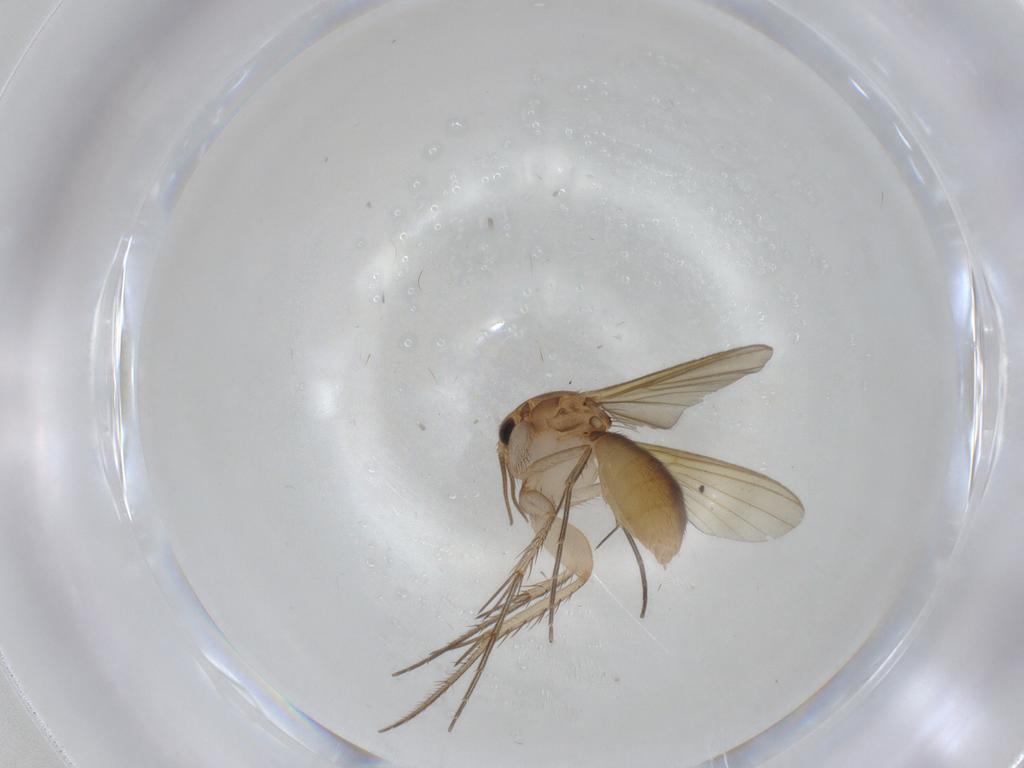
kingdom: Animalia
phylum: Arthropoda
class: Insecta
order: Diptera
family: Mycetophilidae
